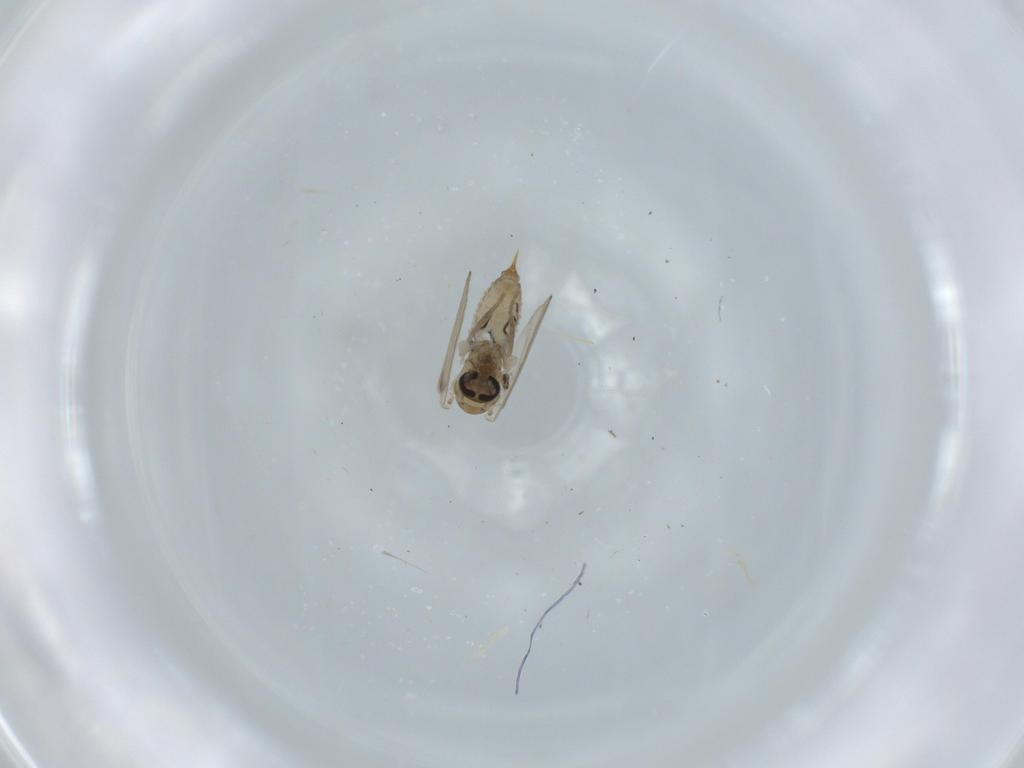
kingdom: Animalia
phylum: Arthropoda
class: Insecta
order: Diptera
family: Psychodidae
